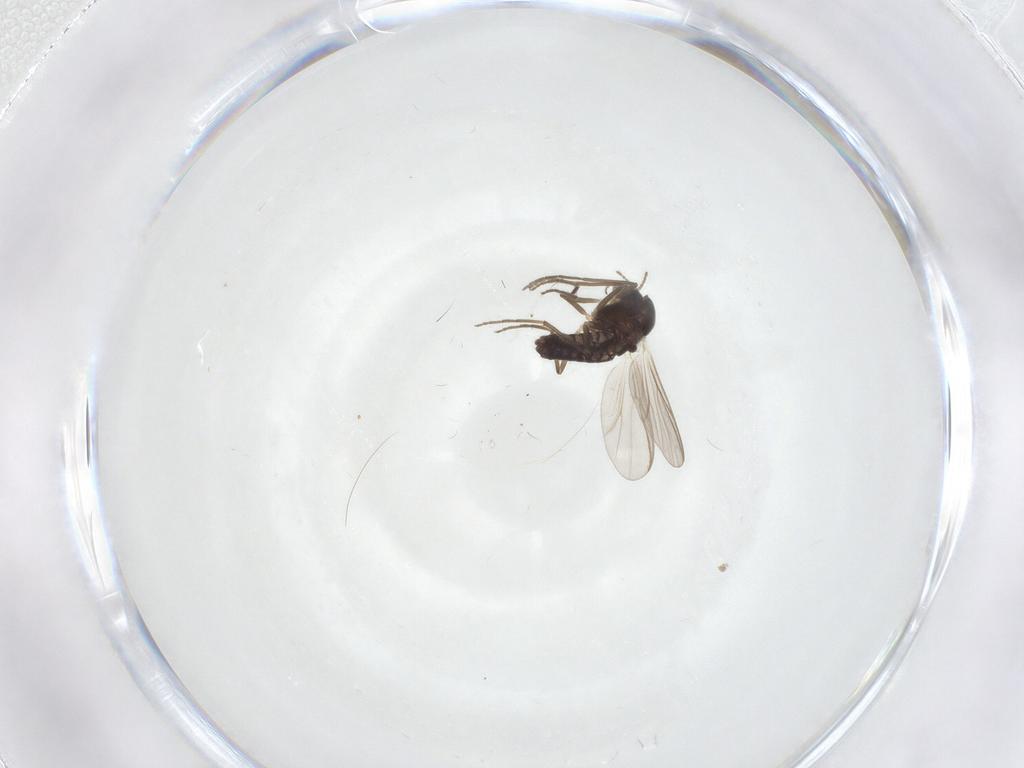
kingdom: Animalia
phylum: Arthropoda
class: Insecta
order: Diptera
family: Chironomidae
